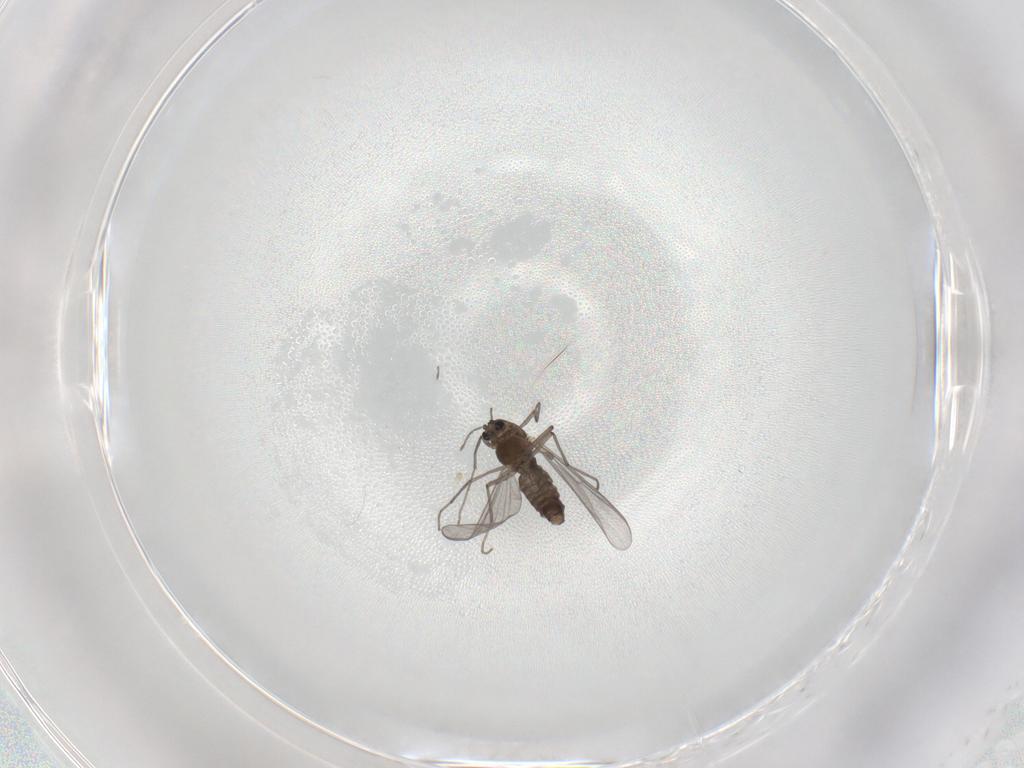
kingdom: Animalia
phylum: Arthropoda
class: Insecta
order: Diptera
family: Chironomidae
